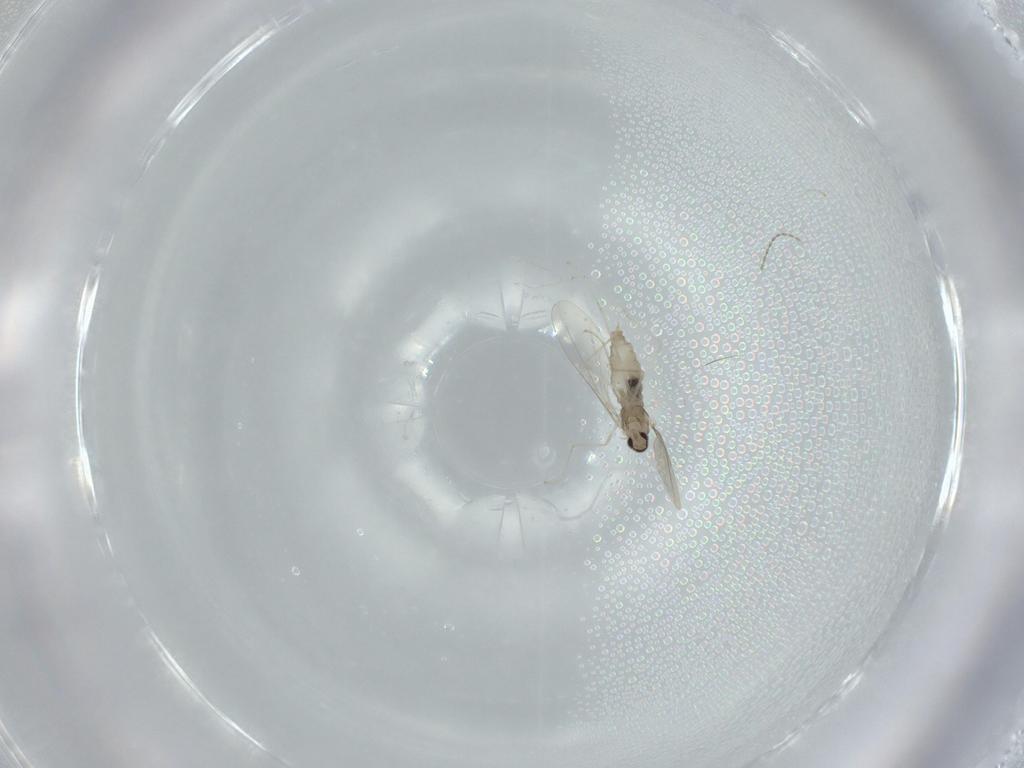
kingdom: Animalia
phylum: Arthropoda
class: Insecta
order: Diptera
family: Cecidomyiidae
